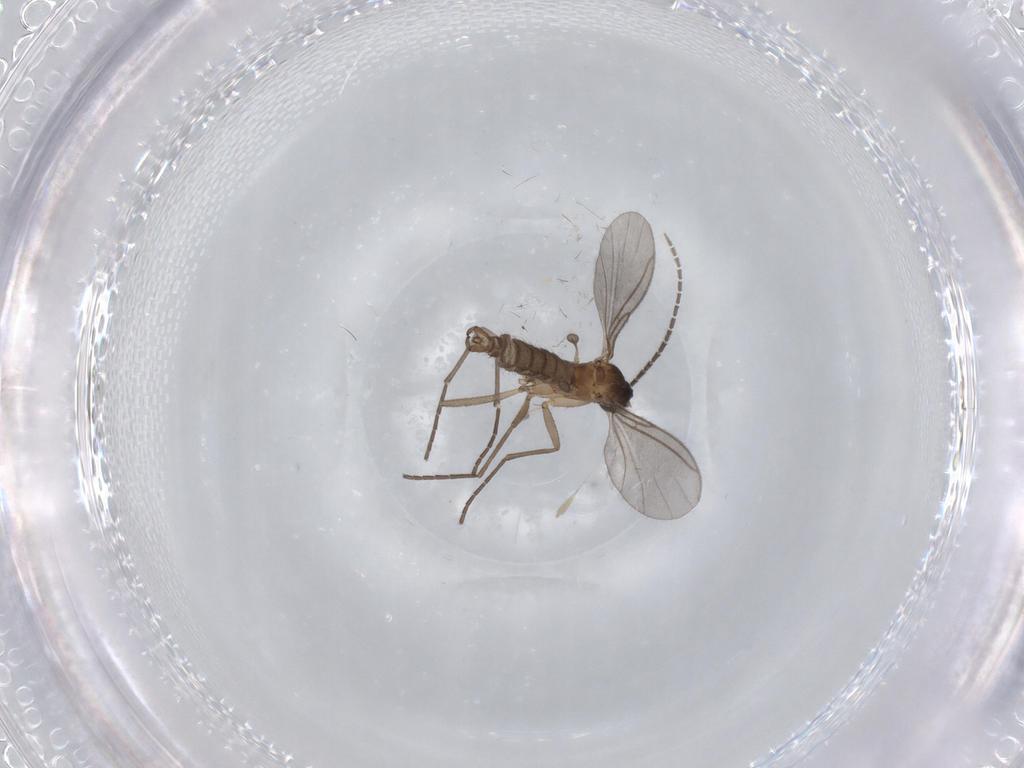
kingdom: Animalia
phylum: Arthropoda
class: Insecta
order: Diptera
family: Sciaridae
